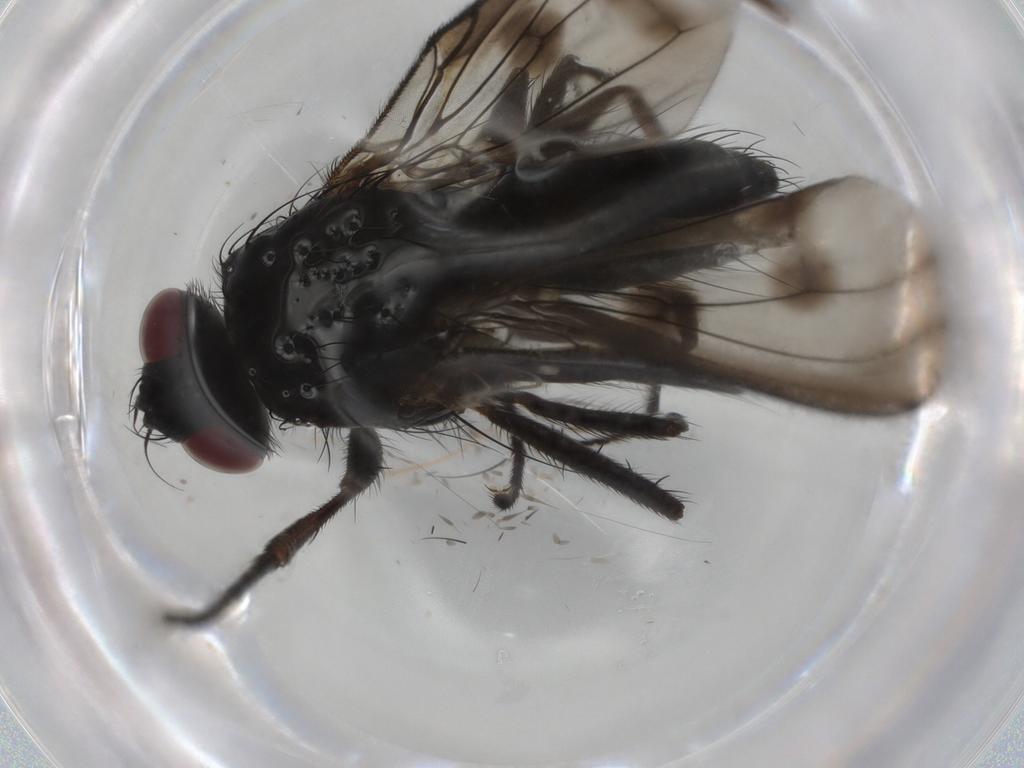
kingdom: Animalia
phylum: Arthropoda
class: Insecta
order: Diptera
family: Muscidae
